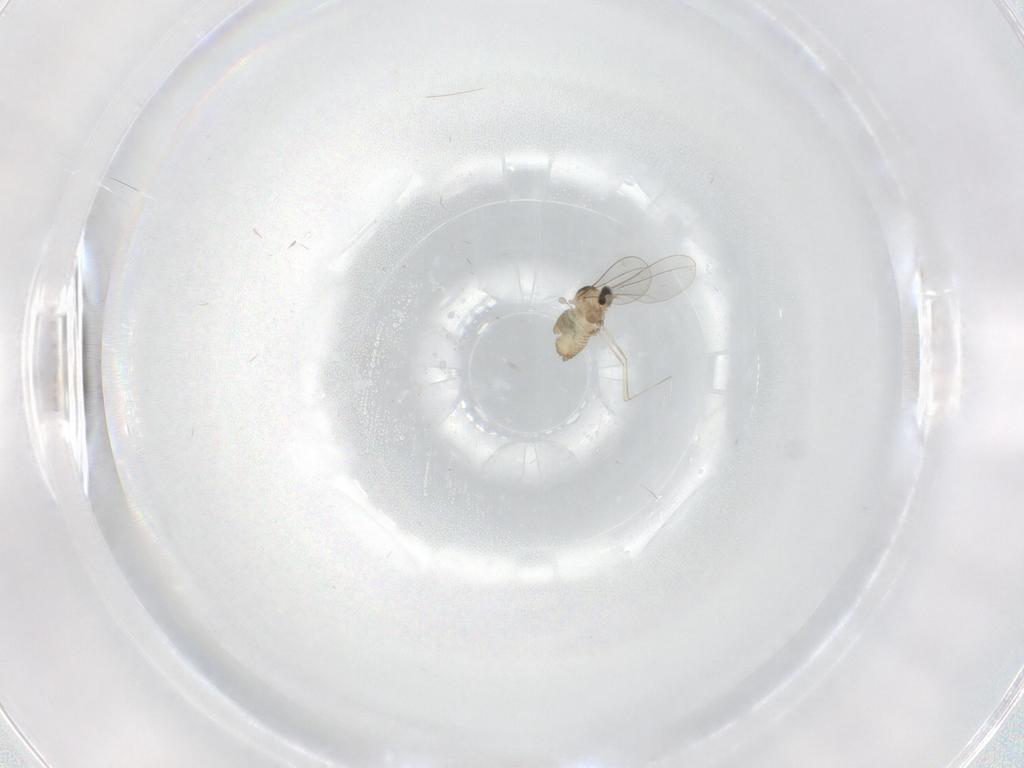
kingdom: Animalia
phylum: Arthropoda
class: Insecta
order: Diptera
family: Cecidomyiidae
